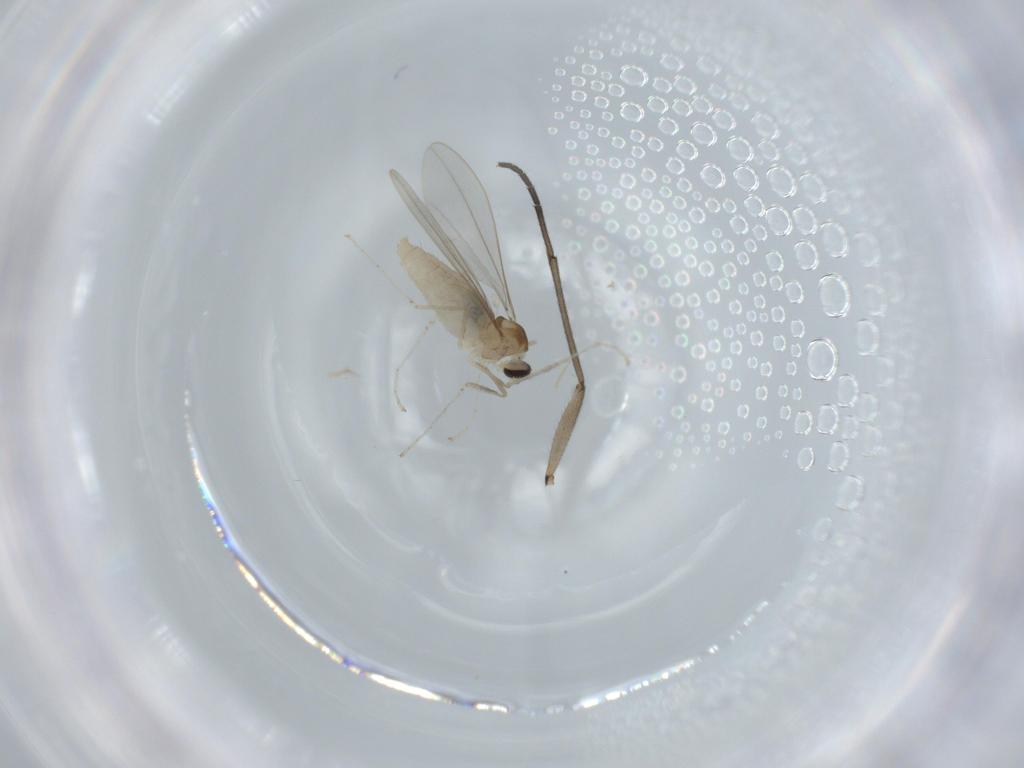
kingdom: Animalia
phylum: Arthropoda
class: Insecta
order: Diptera
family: Cecidomyiidae
